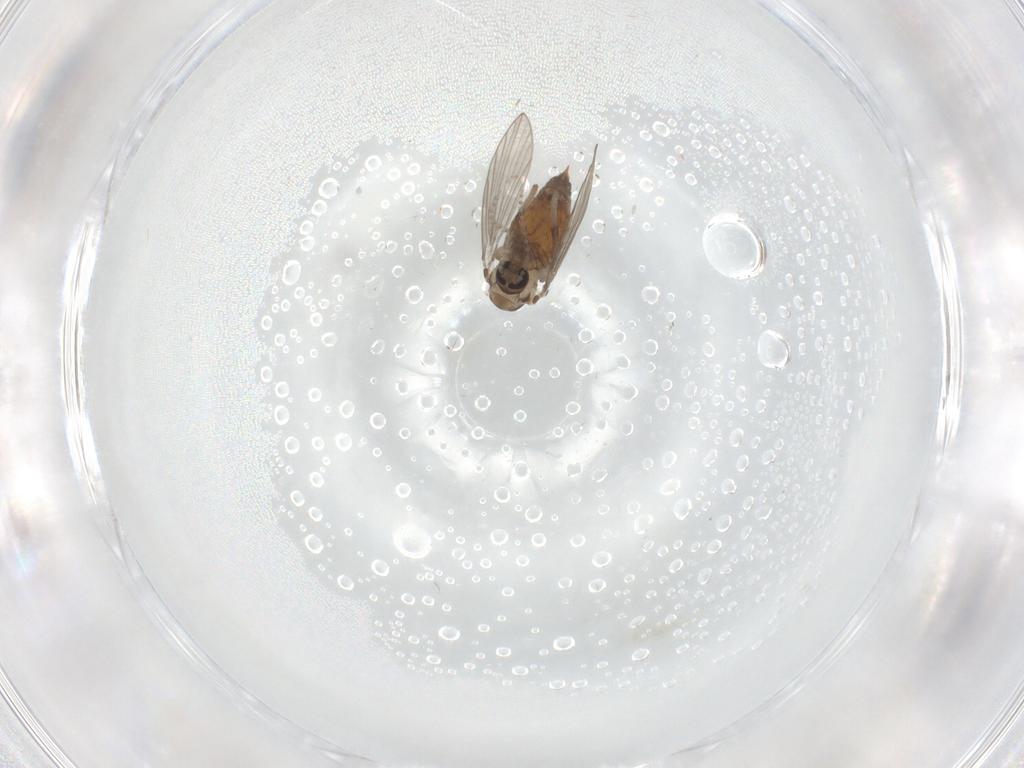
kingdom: Animalia
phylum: Arthropoda
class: Insecta
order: Diptera
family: Psychodidae
